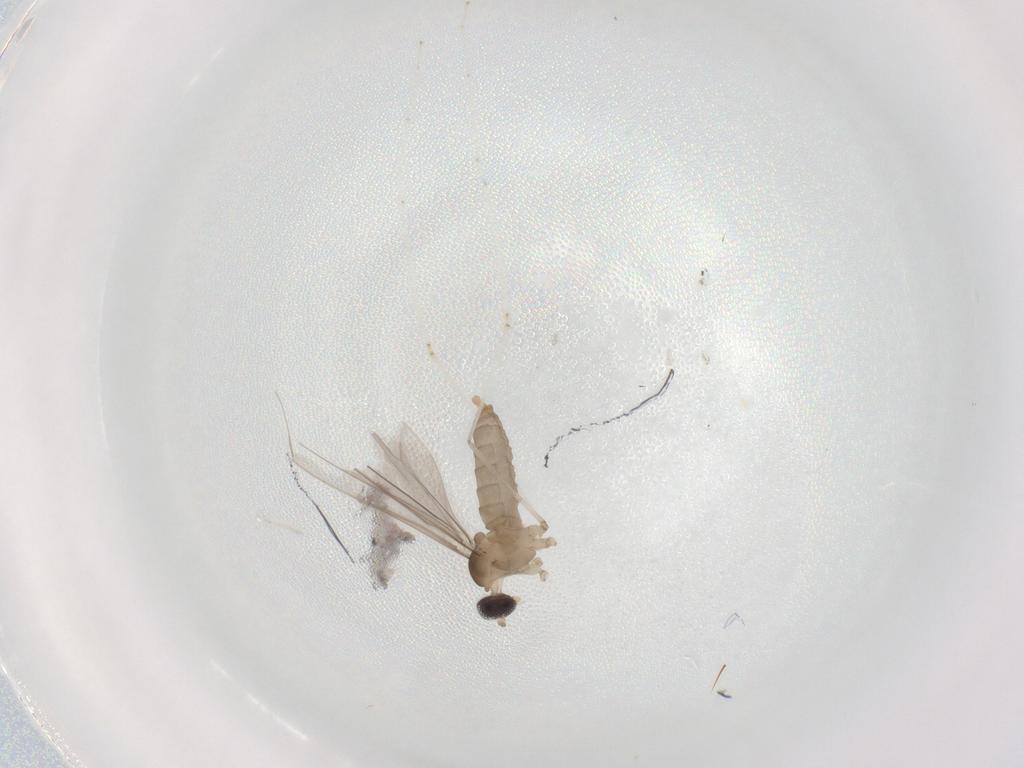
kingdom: Animalia
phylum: Arthropoda
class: Insecta
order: Diptera
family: Cecidomyiidae
